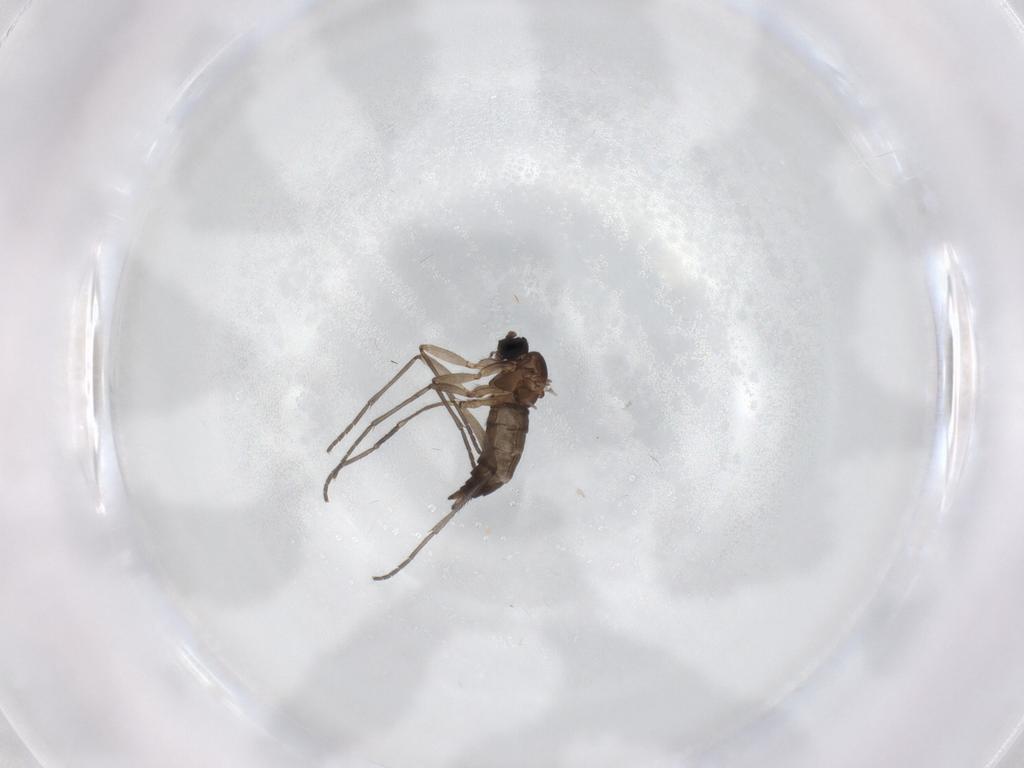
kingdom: Animalia
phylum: Arthropoda
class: Insecta
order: Diptera
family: Sciaridae
